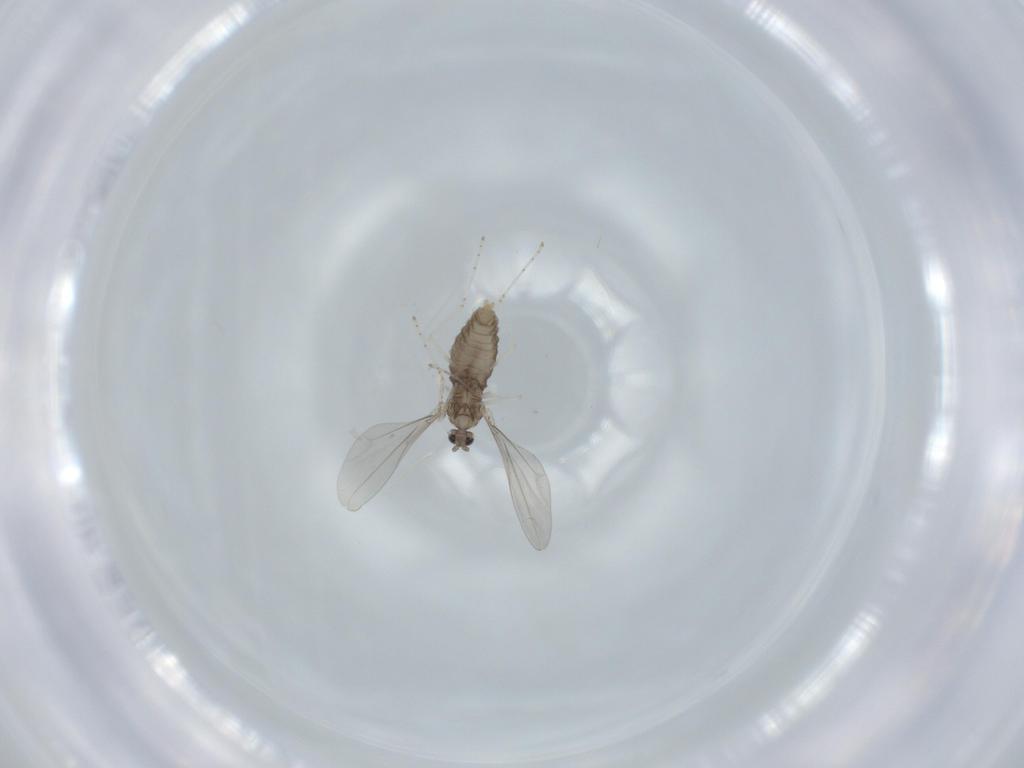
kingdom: Animalia
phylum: Arthropoda
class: Insecta
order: Diptera
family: Cecidomyiidae
